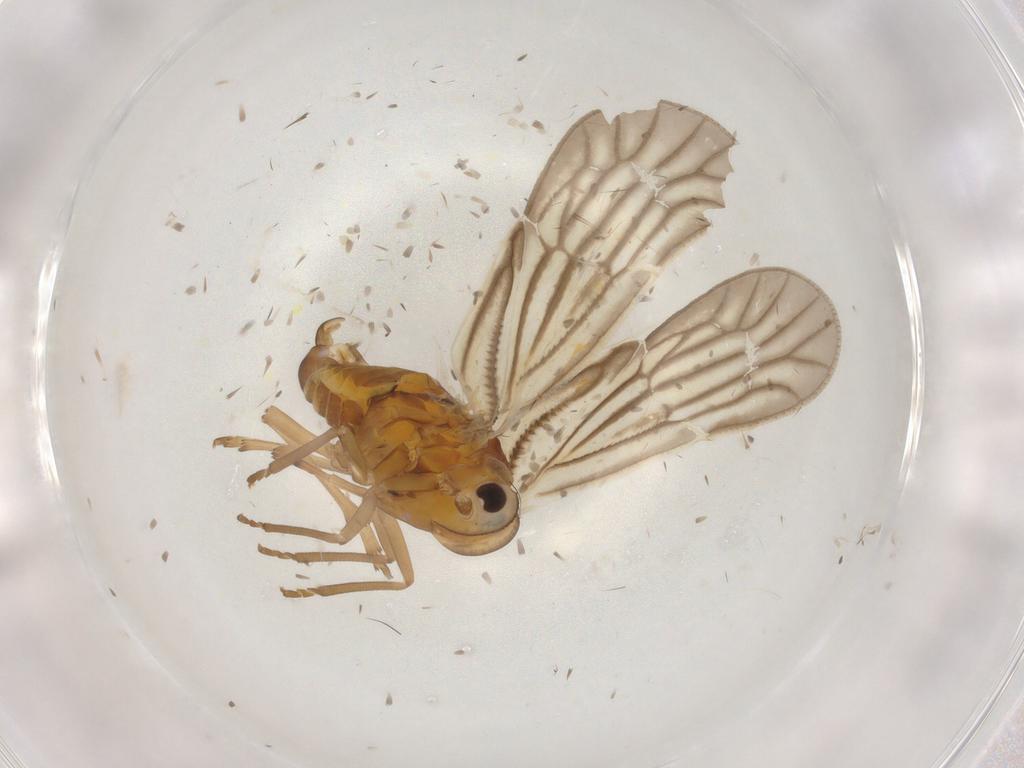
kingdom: Animalia
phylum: Arthropoda
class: Insecta
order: Hemiptera
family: Meenoplidae
